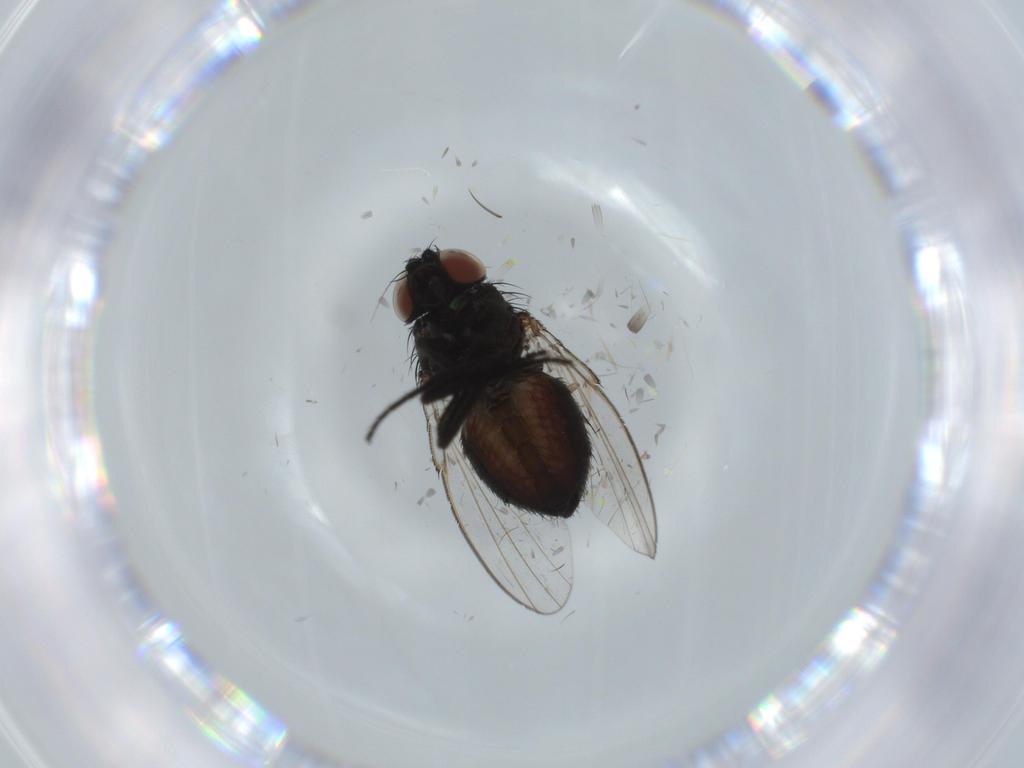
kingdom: Animalia
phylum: Arthropoda
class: Insecta
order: Diptera
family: Milichiidae
